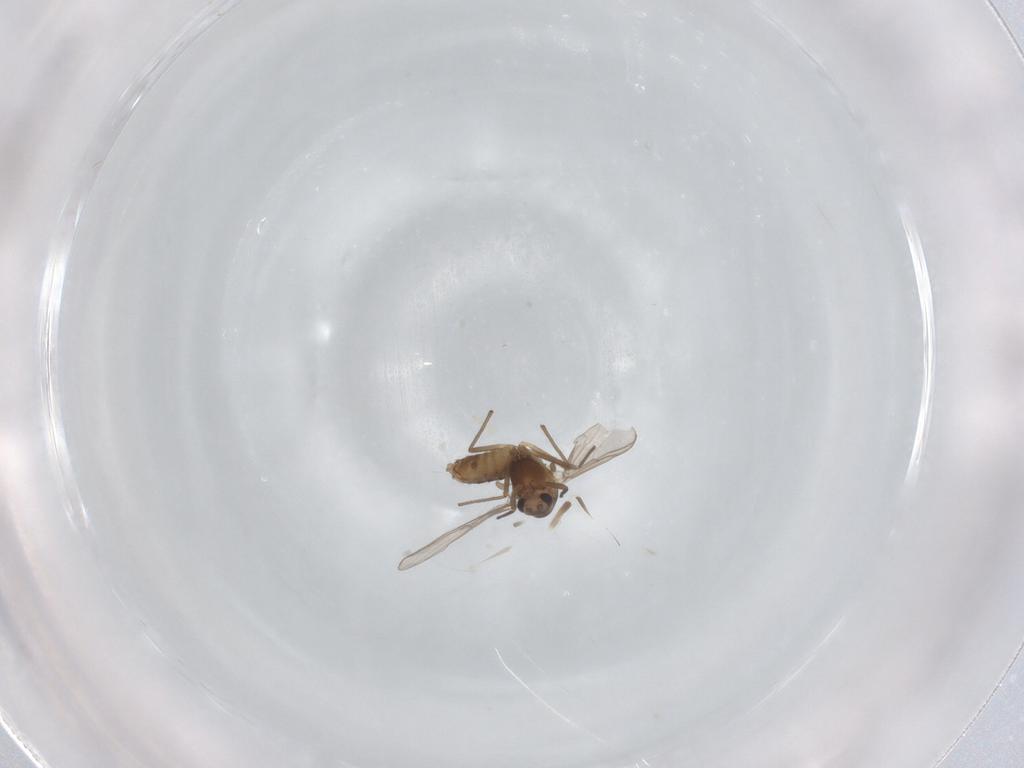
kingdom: Animalia
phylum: Arthropoda
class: Insecta
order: Diptera
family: Chironomidae
